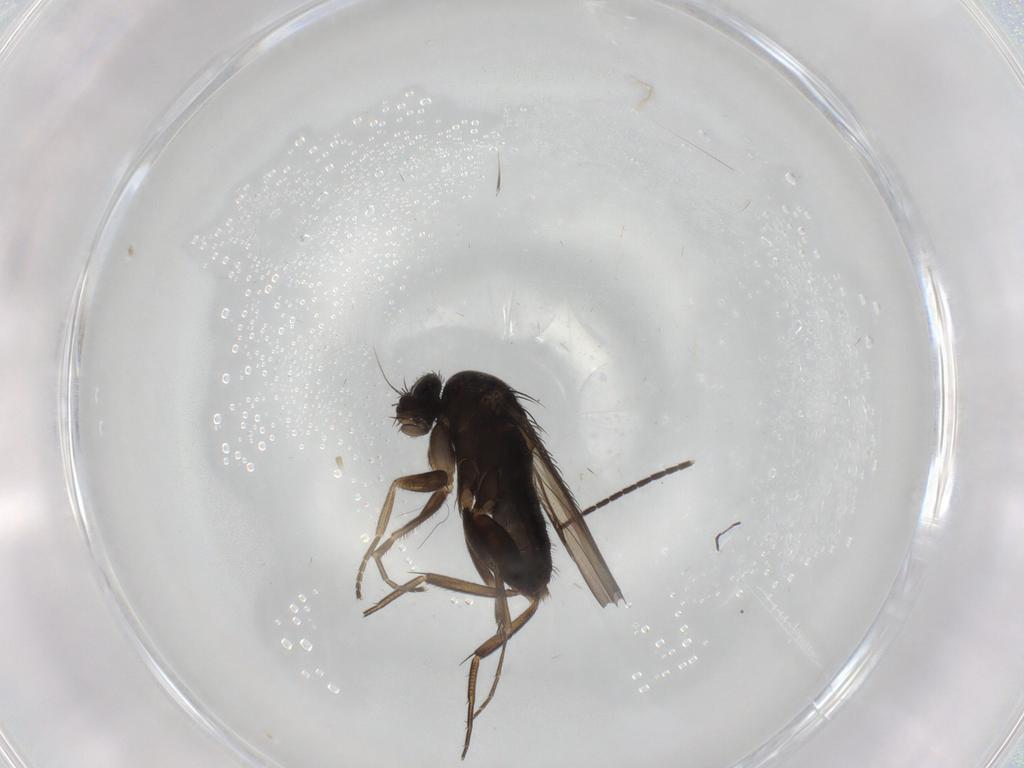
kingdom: Animalia
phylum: Arthropoda
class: Insecta
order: Diptera
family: Phoridae
